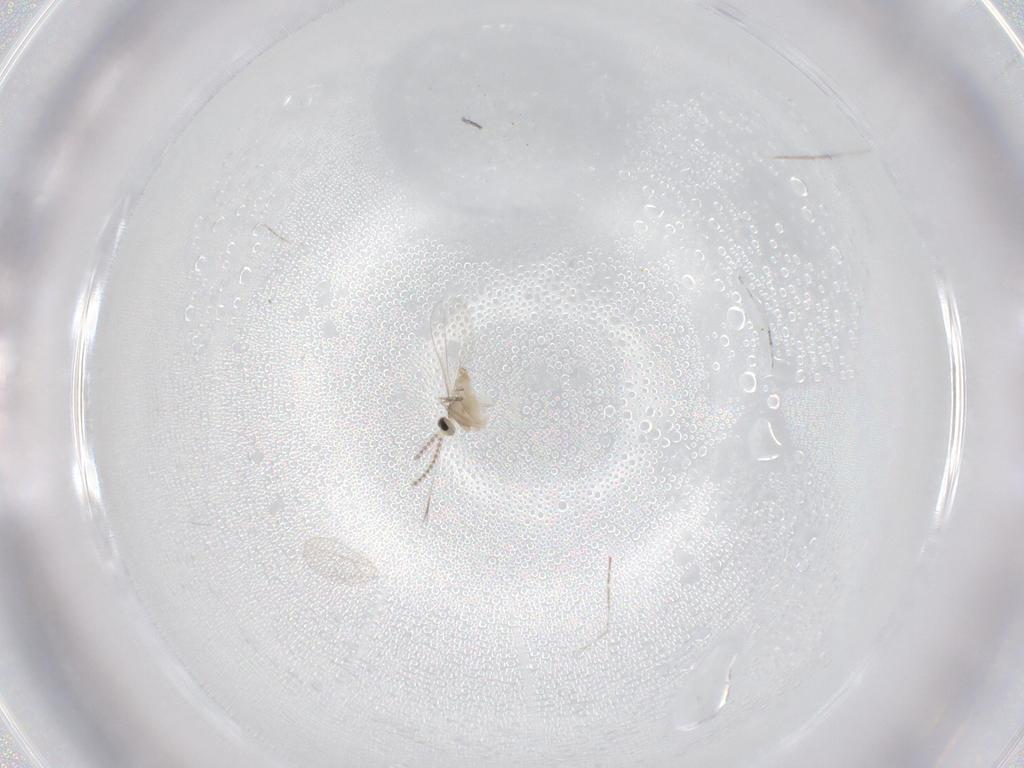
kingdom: Animalia
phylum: Arthropoda
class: Insecta
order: Diptera
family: Cecidomyiidae
